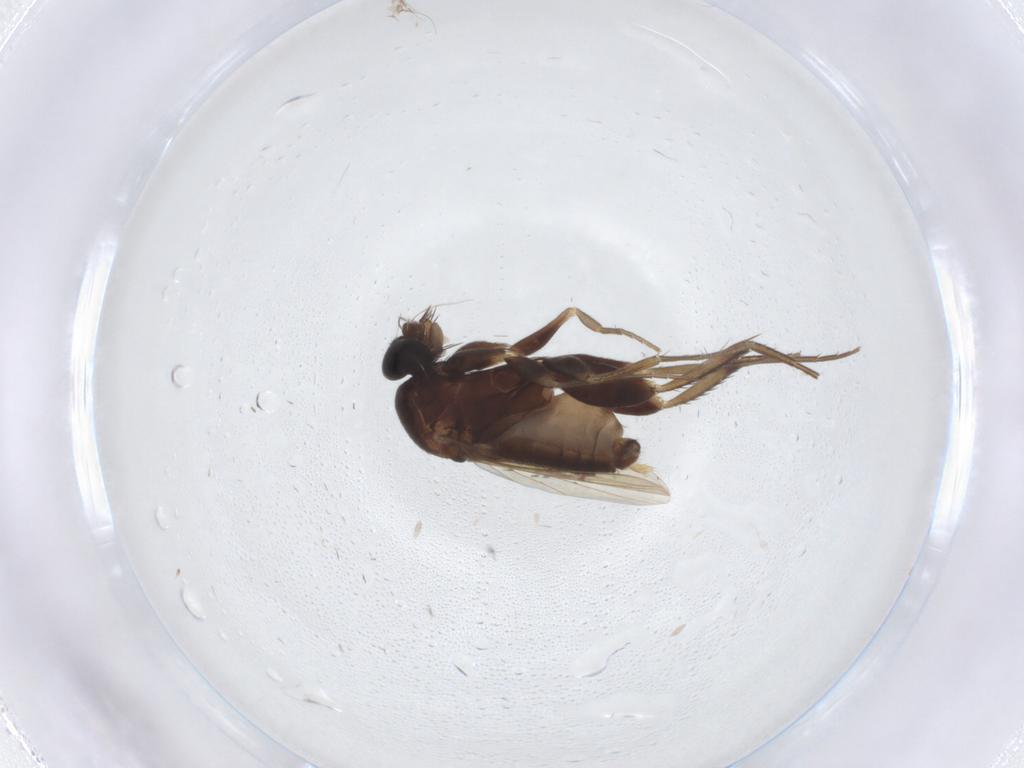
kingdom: Animalia
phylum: Arthropoda
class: Insecta
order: Diptera
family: Phoridae
